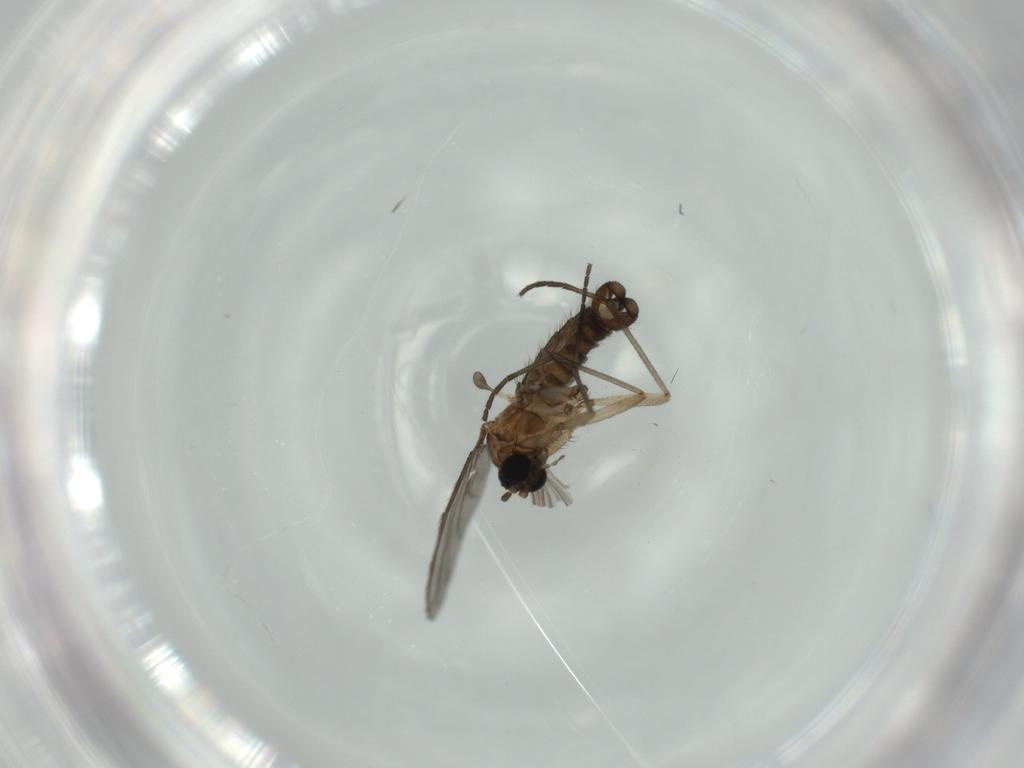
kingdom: Animalia
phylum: Arthropoda
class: Insecta
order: Diptera
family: Sciaridae
